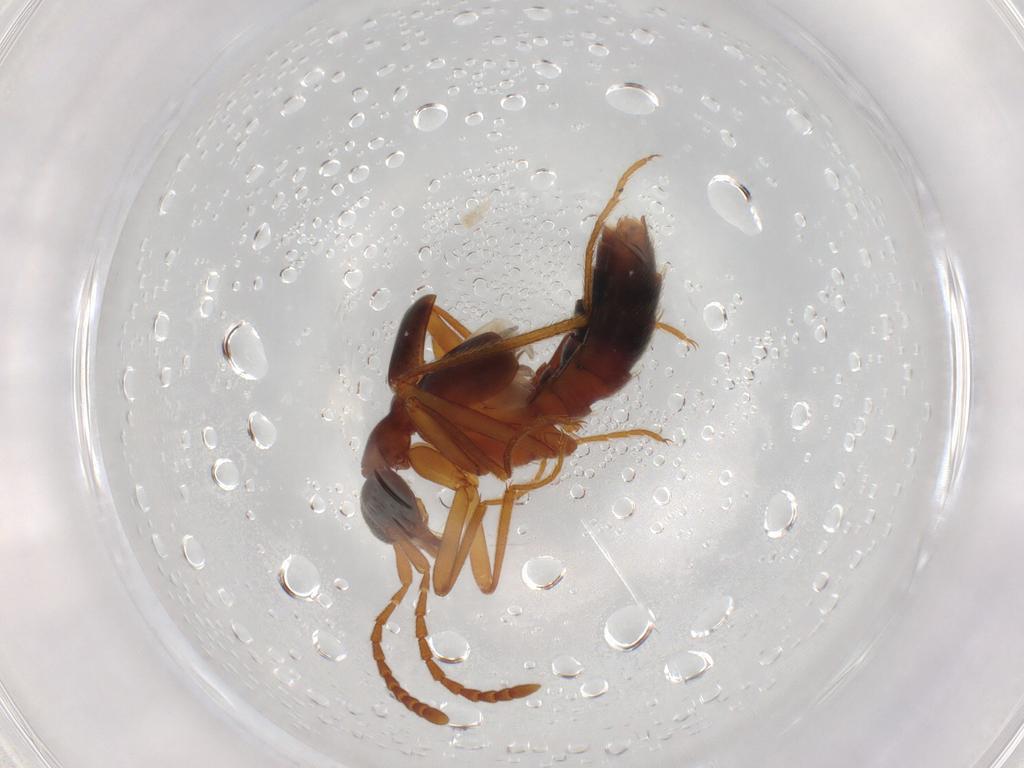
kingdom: Animalia
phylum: Arthropoda
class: Insecta
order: Coleoptera
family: Staphylinidae
